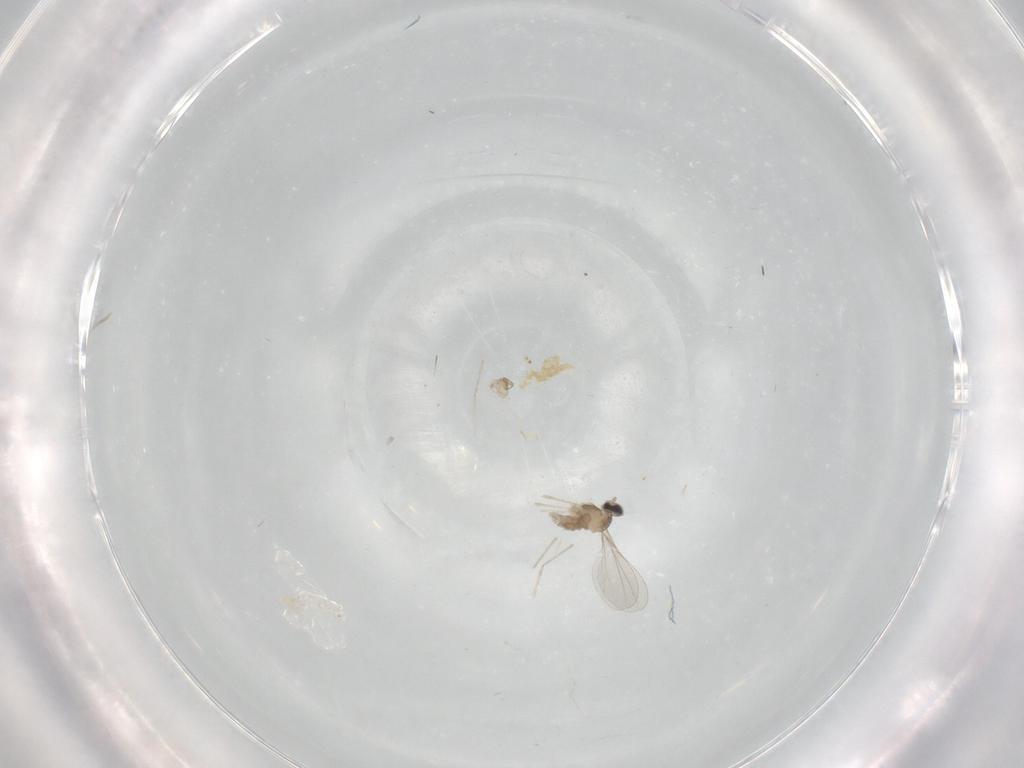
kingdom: Animalia
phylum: Arthropoda
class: Insecta
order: Diptera
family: Cecidomyiidae
